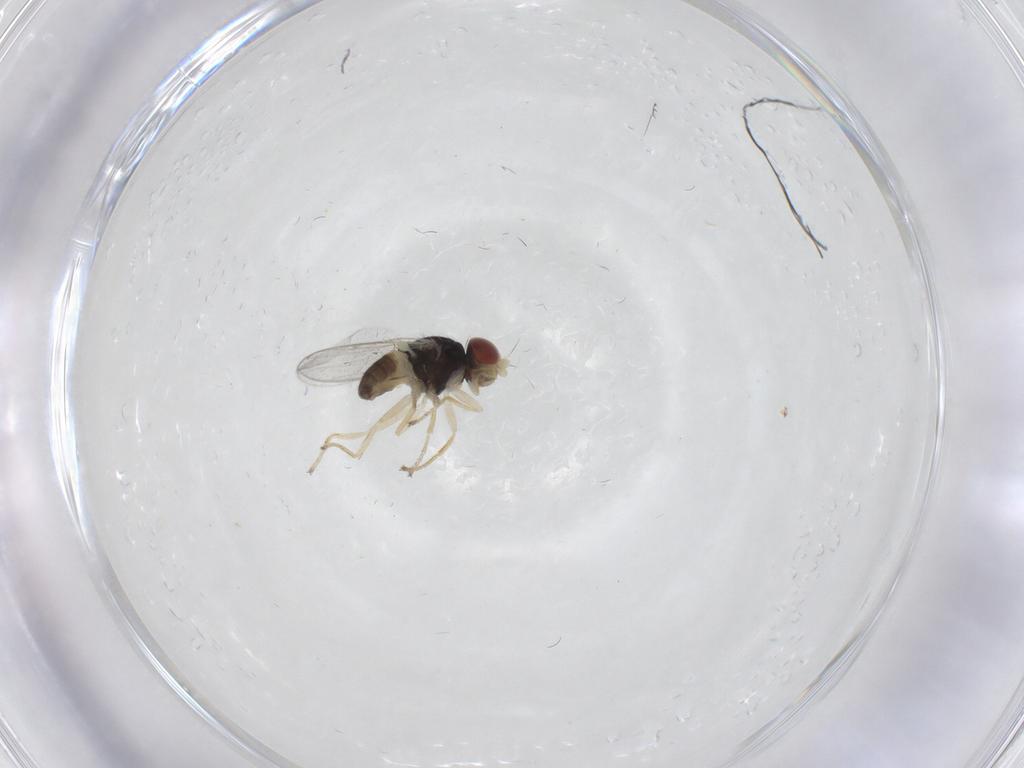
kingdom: Animalia
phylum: Arthropoda
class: Insecta
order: Diptera
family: Chloropidae
